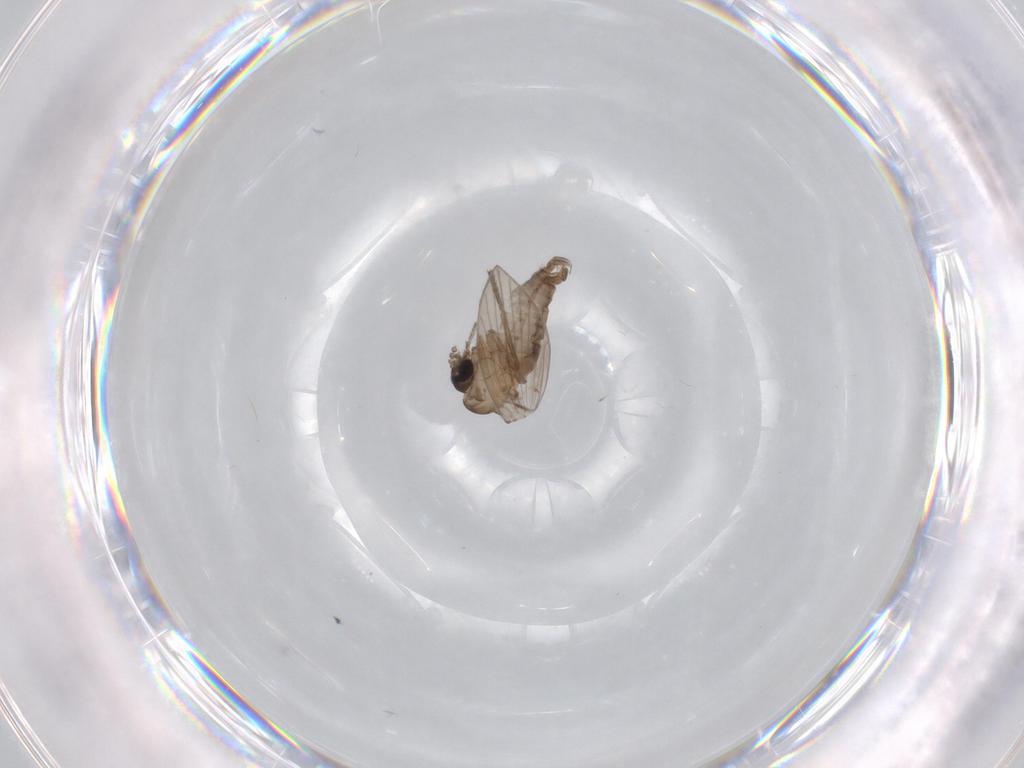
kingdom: Animalia
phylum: Arthropoda
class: Insecta
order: Diptera
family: Psychodidae
